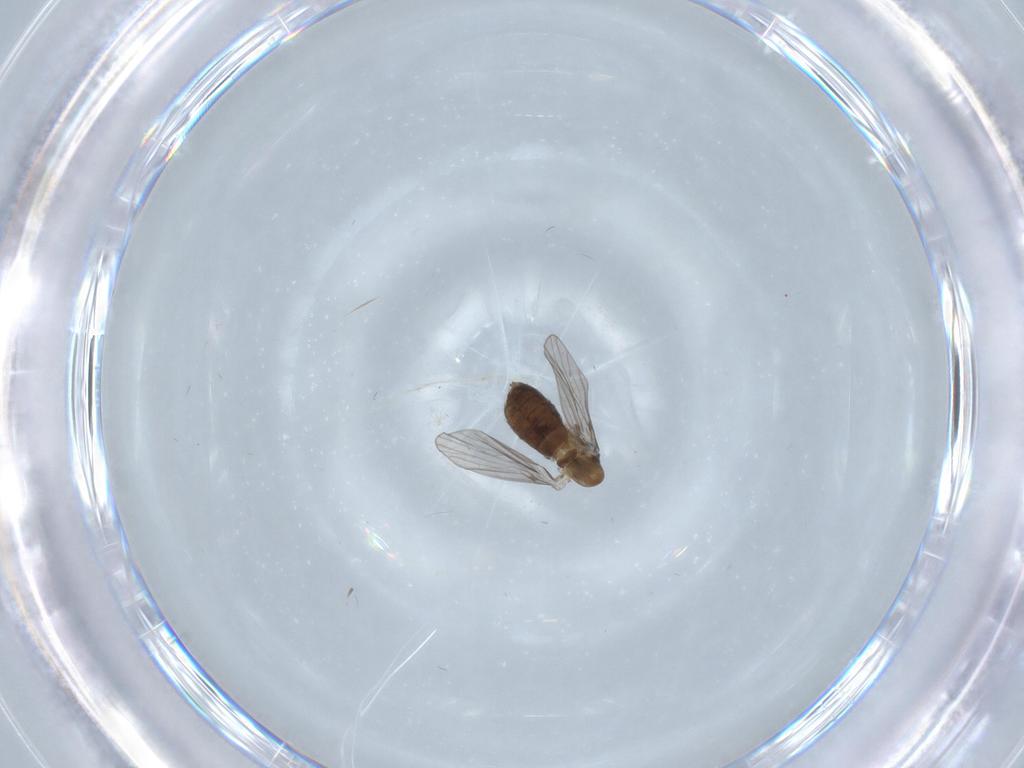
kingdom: Animalia
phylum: Arthropoda
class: Insecta
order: Diptera
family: Psychodidae
